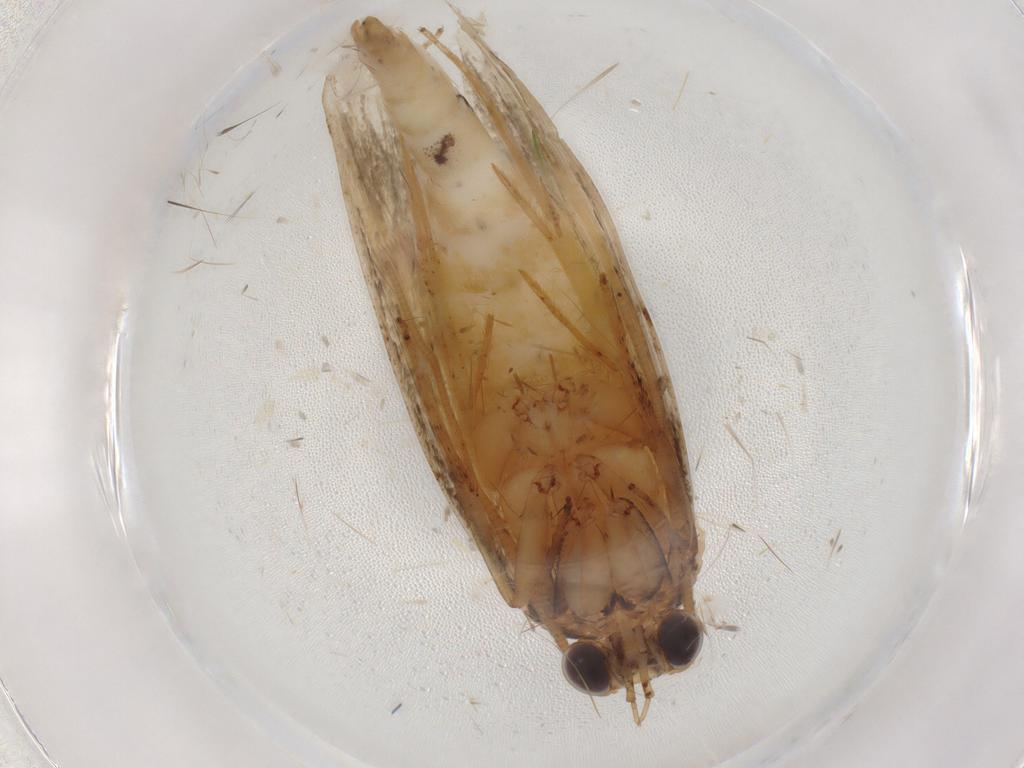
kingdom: Animalia
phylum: Arthropoda
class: Insecta
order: Lepidoptera
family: Tineidae
